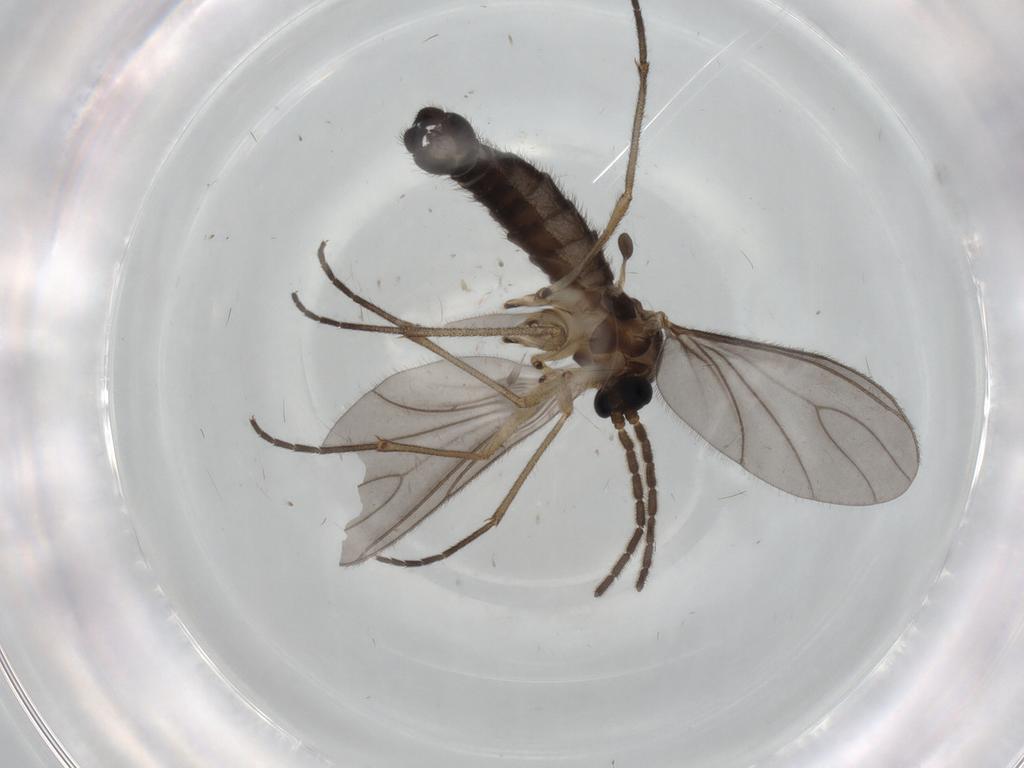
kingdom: Animalia
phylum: Arthropoda
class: Insecta
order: Diptera
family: Sciaridae
